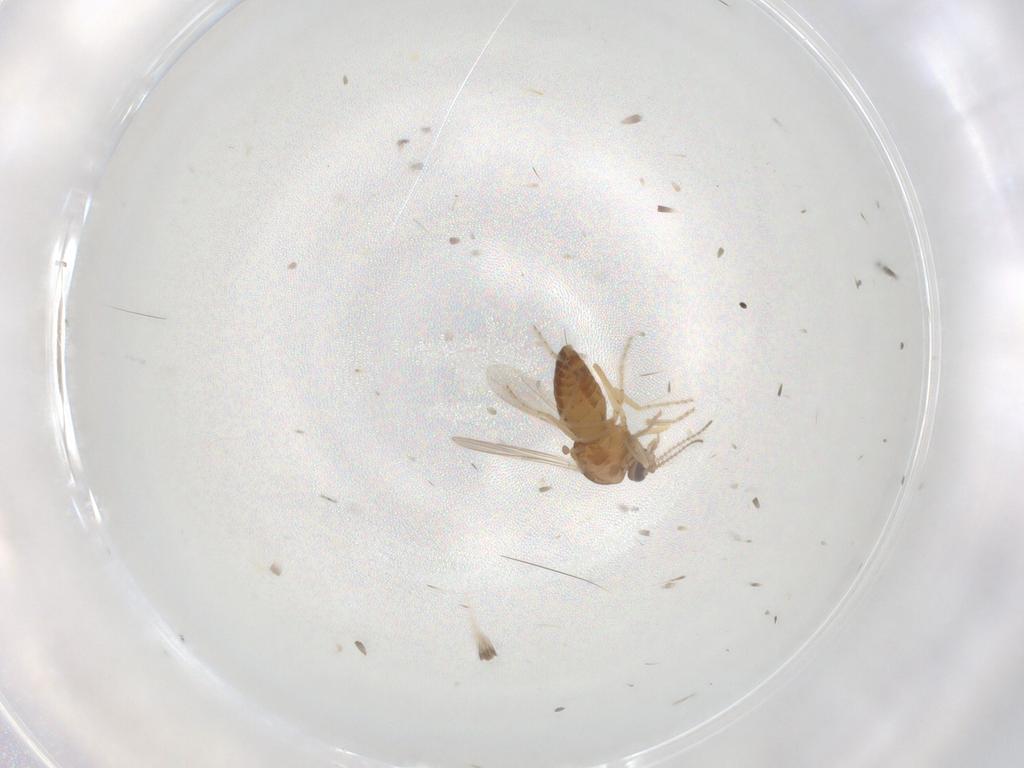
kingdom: Animalia
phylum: Arthropoda
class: Insecta
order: Diptera
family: Ceratopogonidae
